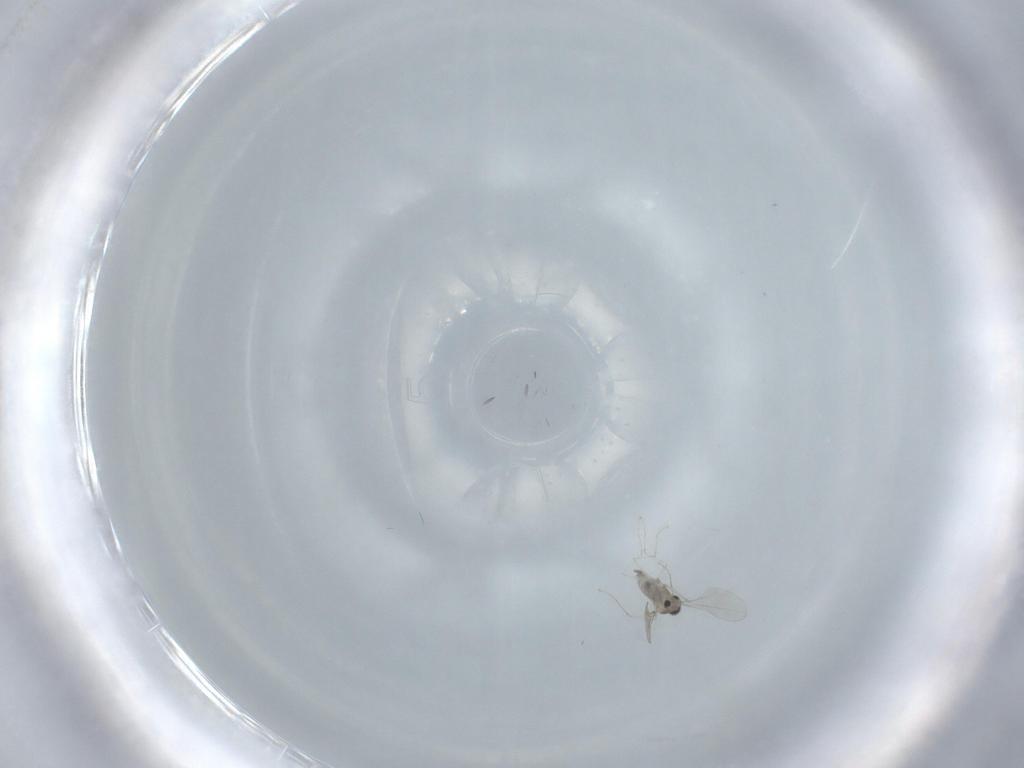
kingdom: Animalia
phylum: Arthropoda
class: Insecta
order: Diptera
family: Cecidomyiidae
